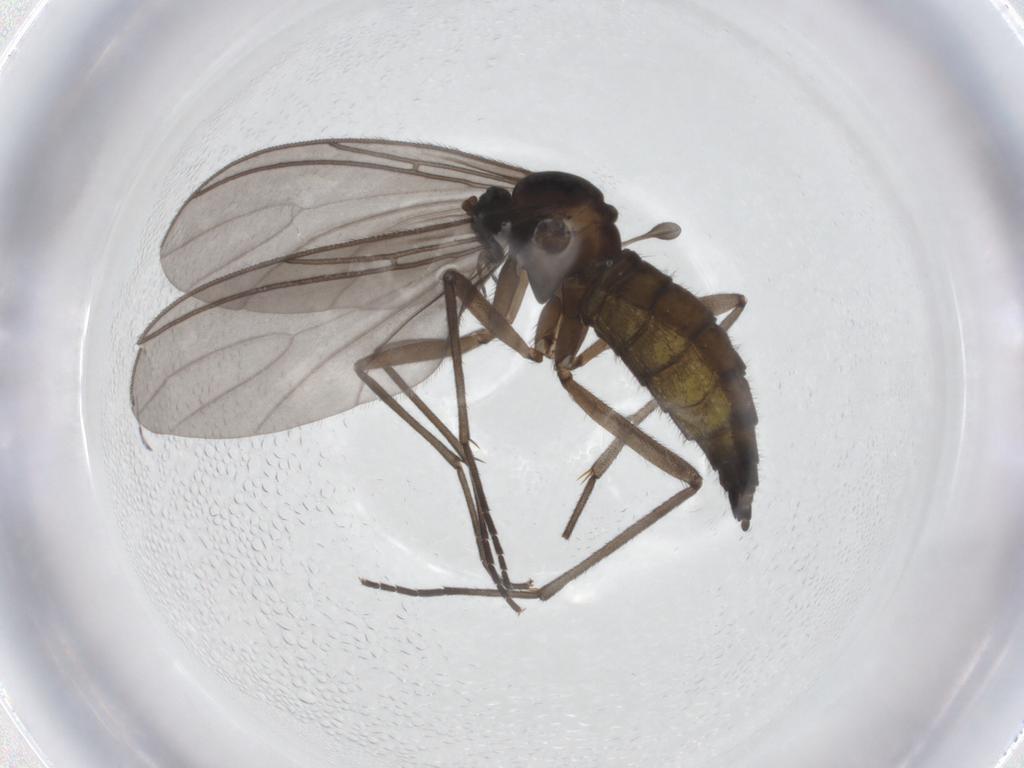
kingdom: Animalia
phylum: Arthropoda
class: Insecta
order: Diptera
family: Sciaridae
